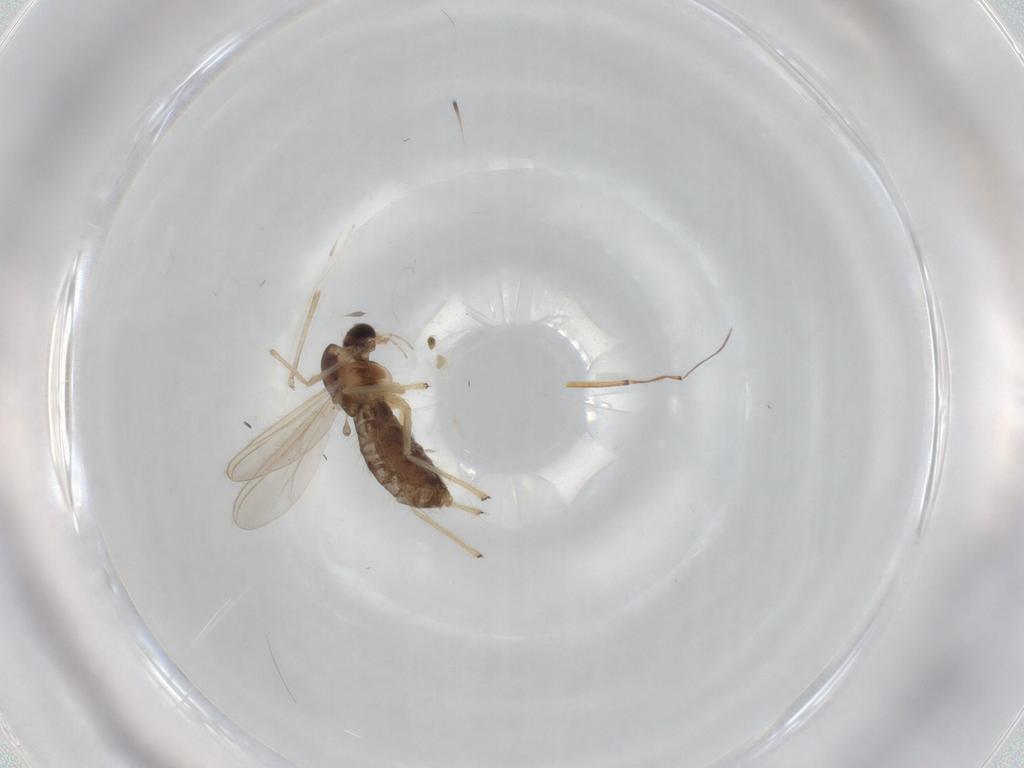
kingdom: Animalia
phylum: Arthropoda
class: Insecta
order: Diptera
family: Chironomidae
